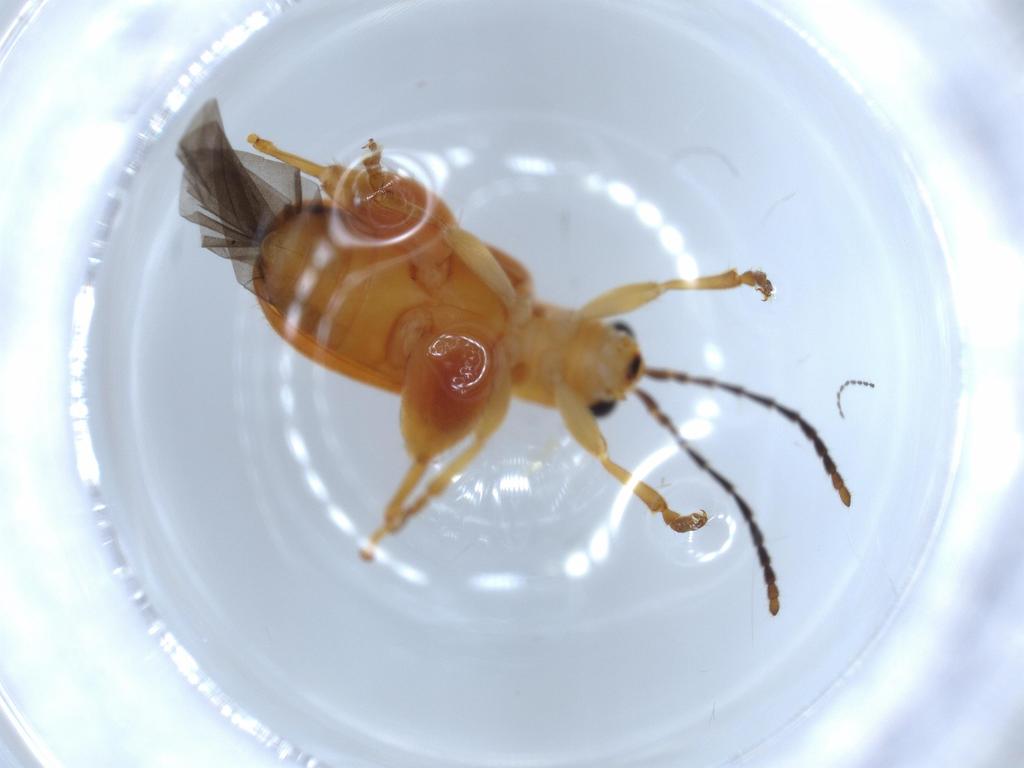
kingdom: Animalia
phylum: Arthropoda
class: Insecta
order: Coleoptera
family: Chrysomelidae
